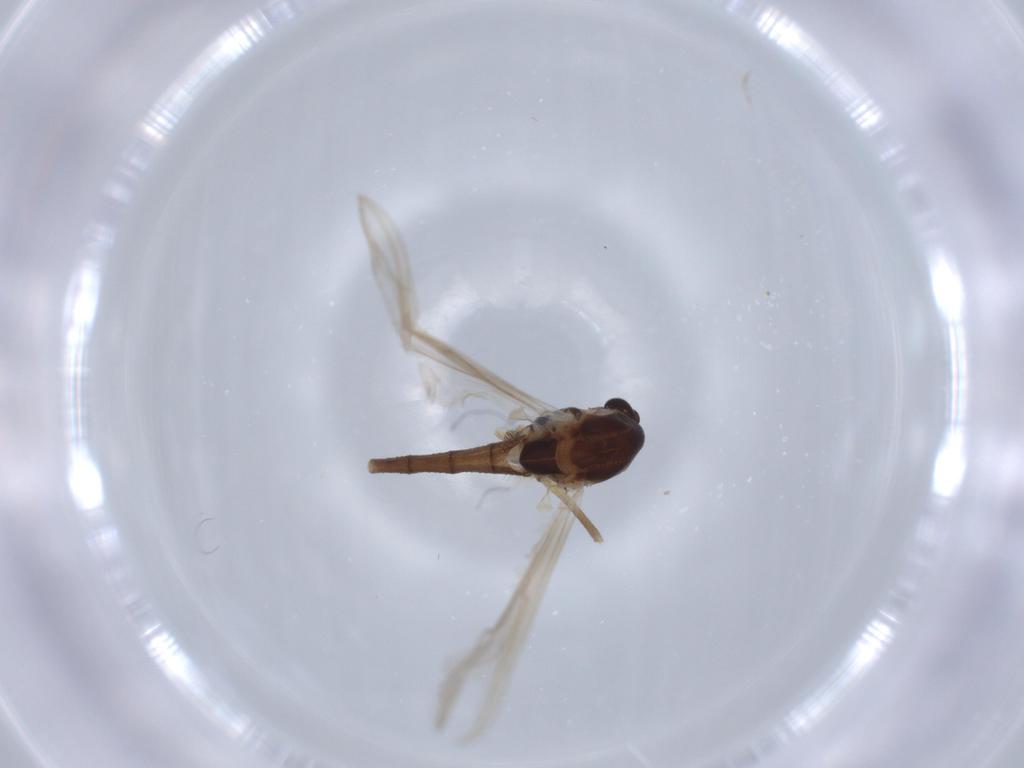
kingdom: Animalia
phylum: Arthropoda
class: Insecta
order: Diptera
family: Chironomidae
